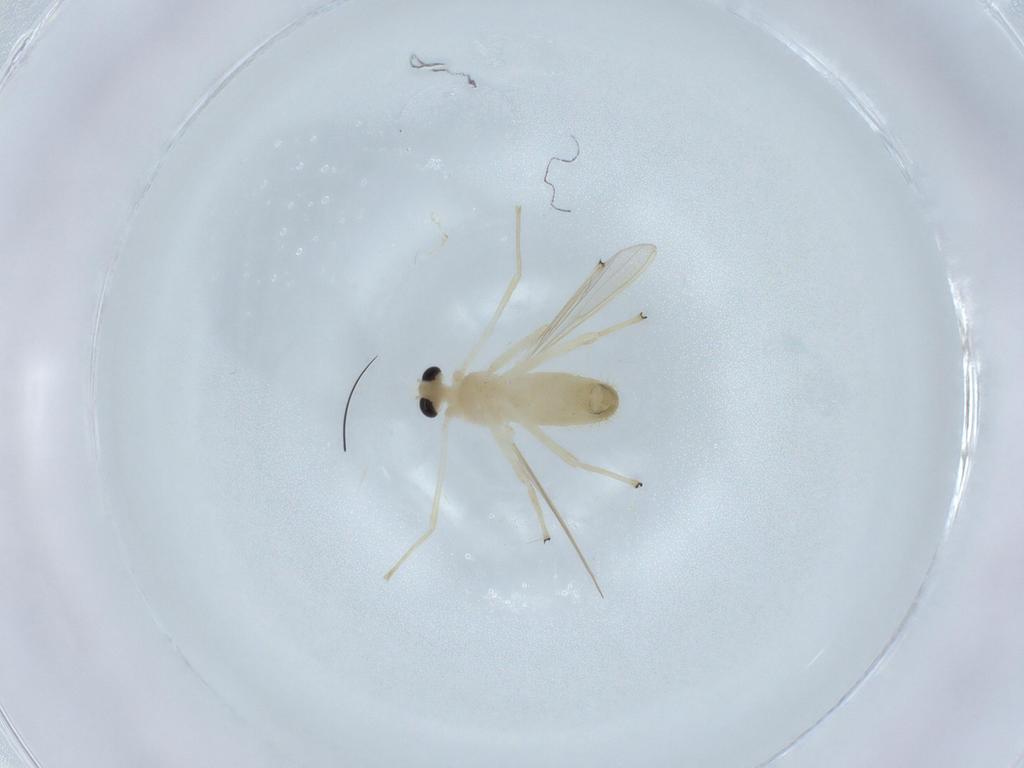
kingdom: Animalia
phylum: Arthropoda
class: Insecta
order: Diptera
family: Chironomidae
